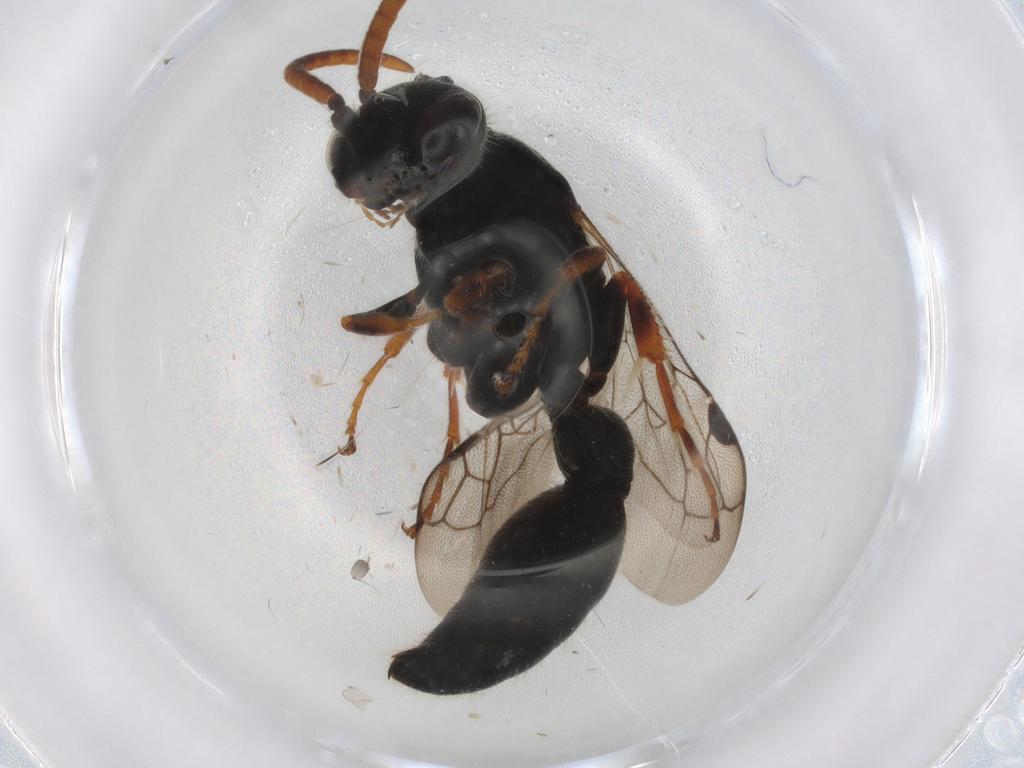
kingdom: Animalia
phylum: Arthropoda
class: Insecta
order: Hymenoptera
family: Tiphiidae
